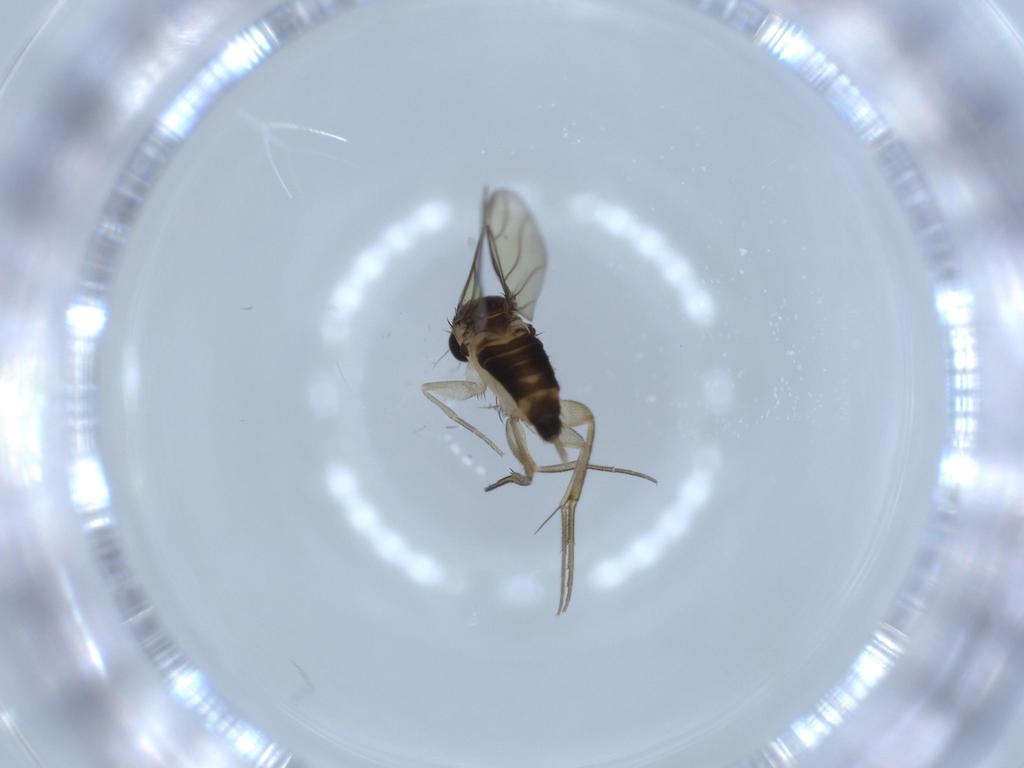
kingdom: Animalia
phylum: Arthropoda
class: Insecta
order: Diptera
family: Phoridae
